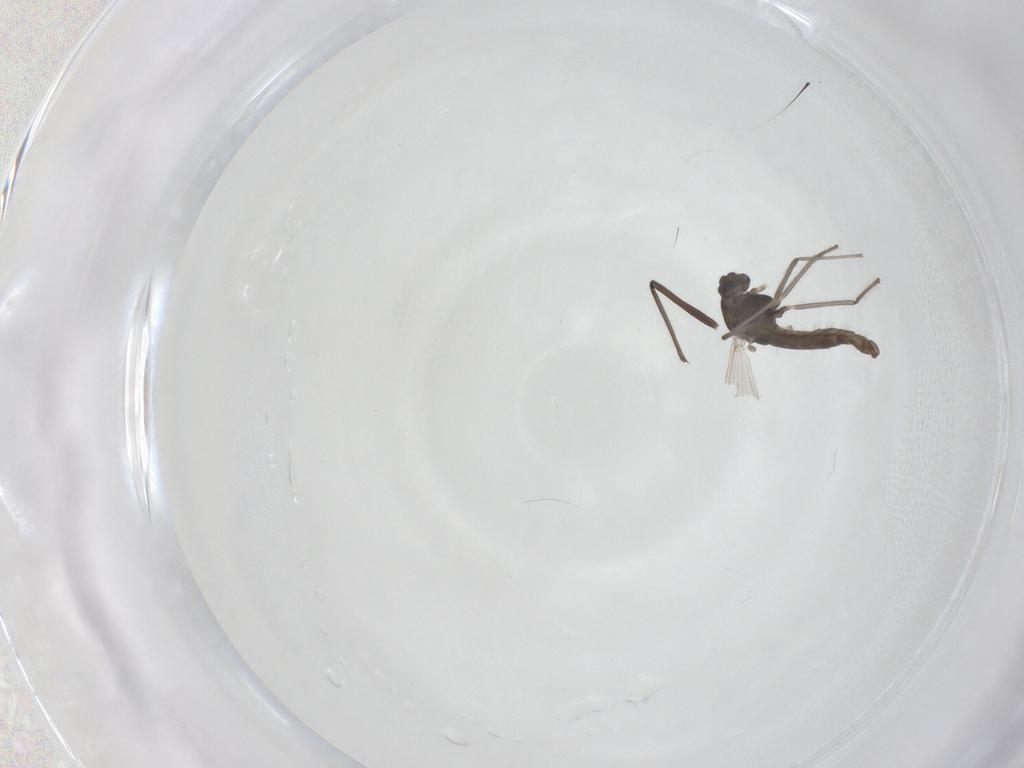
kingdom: Animalia
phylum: Arthropoda
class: Insecta
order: Diptera
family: Chironomidae
